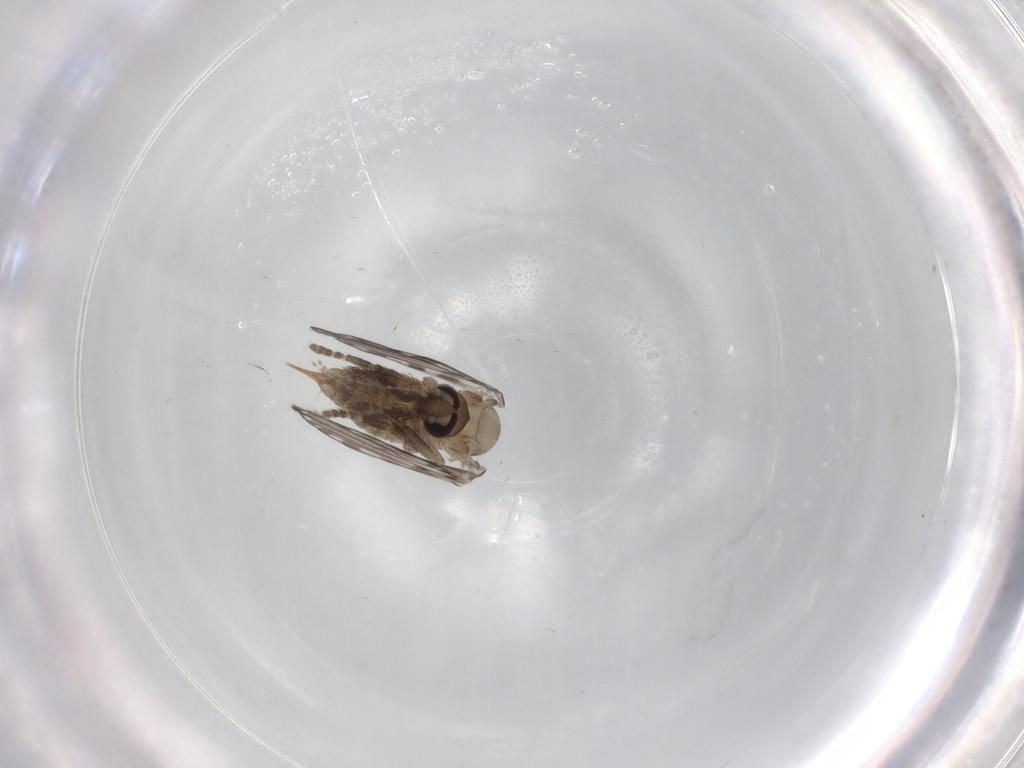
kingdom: Animalia
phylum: Arthropoda
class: Insecta
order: Diptera
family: Psychodidae
